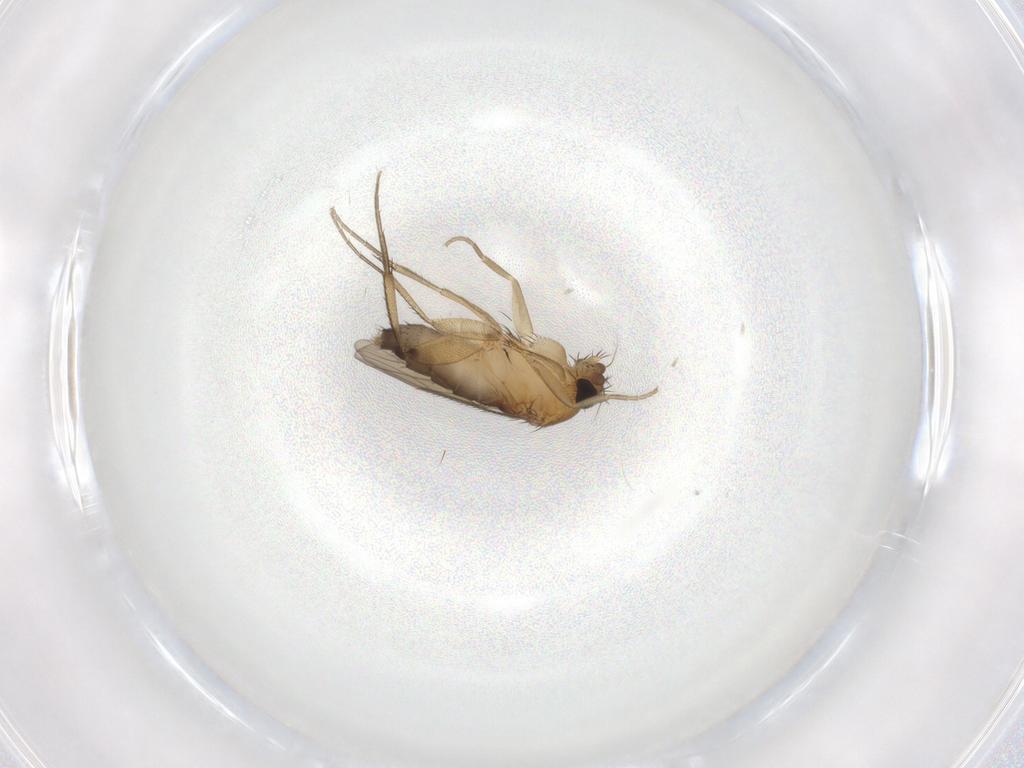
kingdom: Animalia
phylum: Arthropoda
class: Insecta
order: Diptera
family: Phoridae
